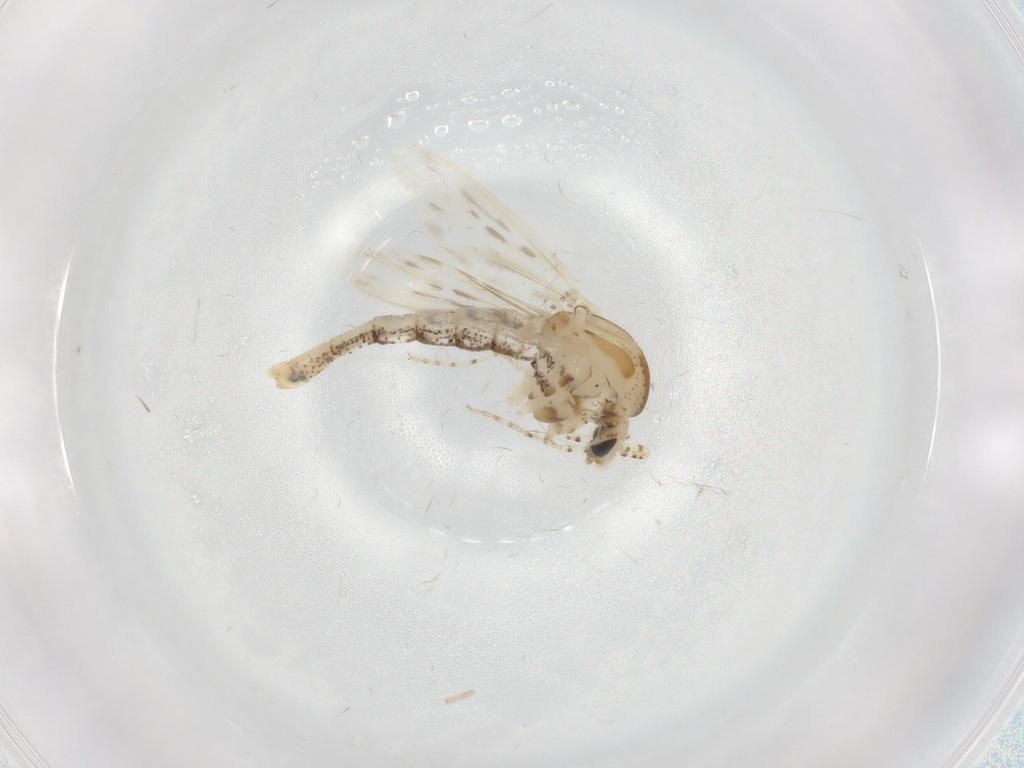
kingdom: Animalia
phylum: Arthropoda
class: Insecta
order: Diptera
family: Chaoboridae
